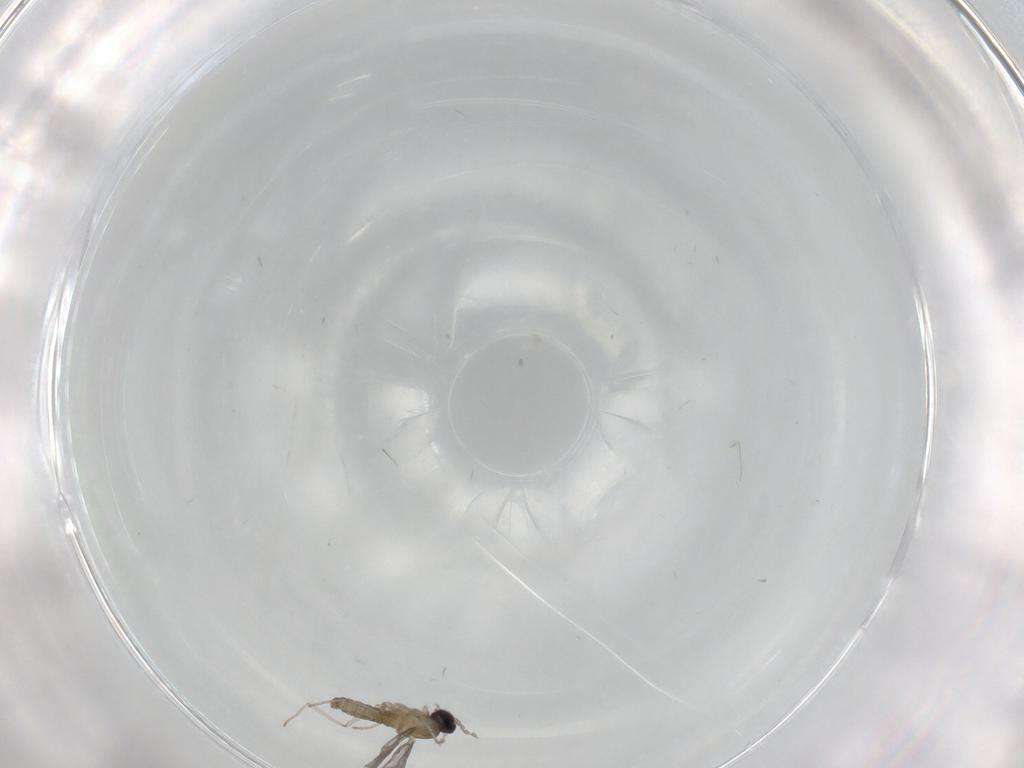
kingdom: Animalia
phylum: Arthropoda
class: Insecta
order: Diptera
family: Cecidomyiidae
